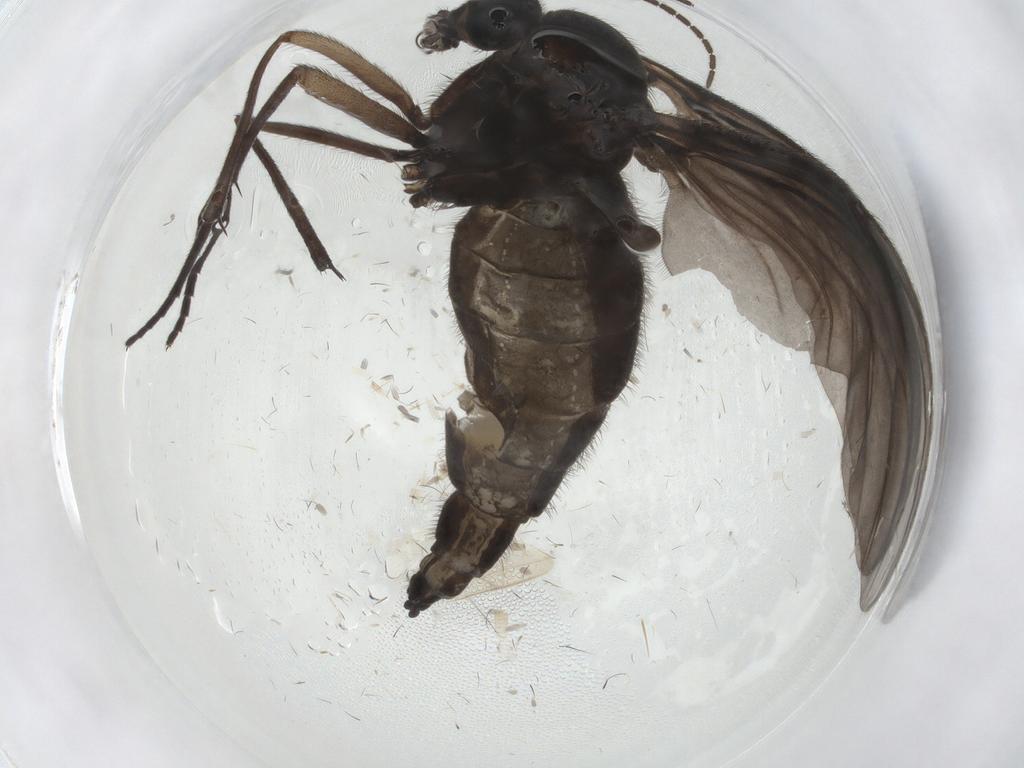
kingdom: Animalia
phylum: Arthropoda
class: Insecta
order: Diptera
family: Sciaridae
